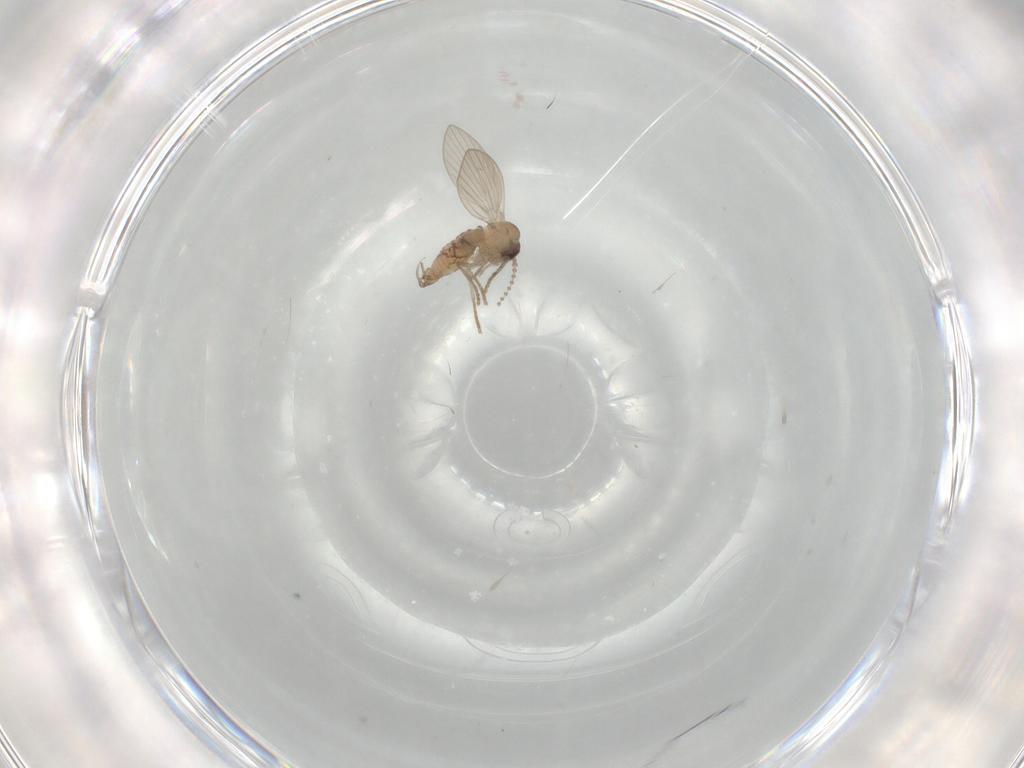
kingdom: Animalia
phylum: Arthropoda
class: Insecta
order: Diptera
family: Psychodidae
